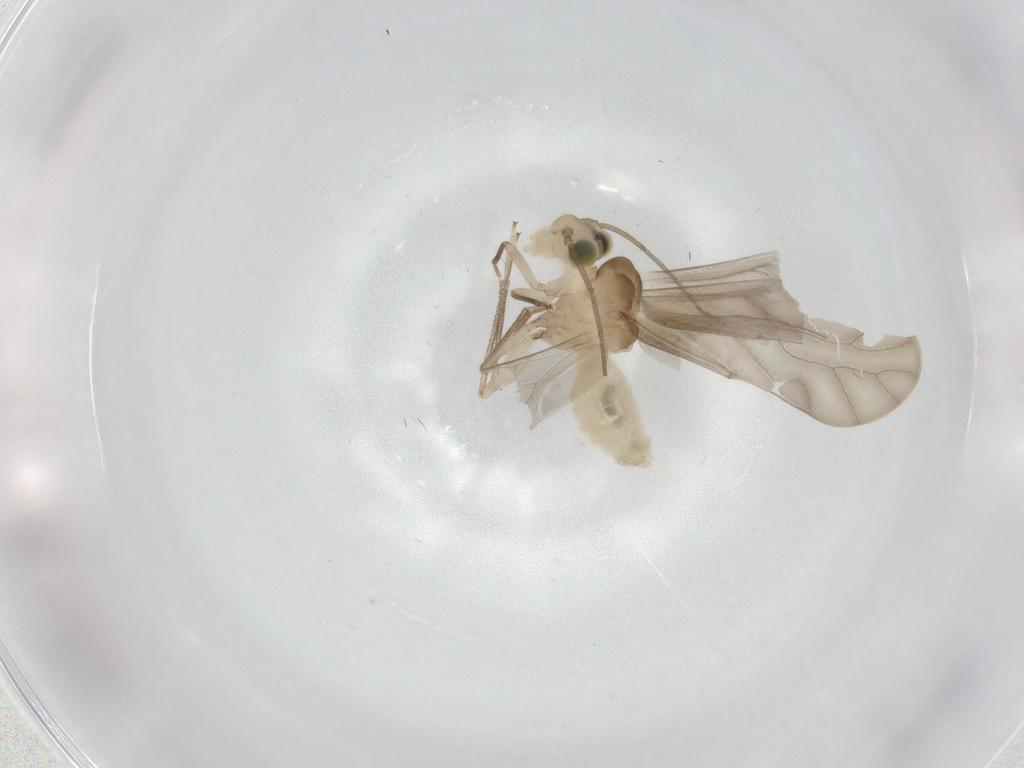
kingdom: Animalia
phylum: Arthropoda
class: Insecta
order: Psocodea
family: Caeciliusidae
